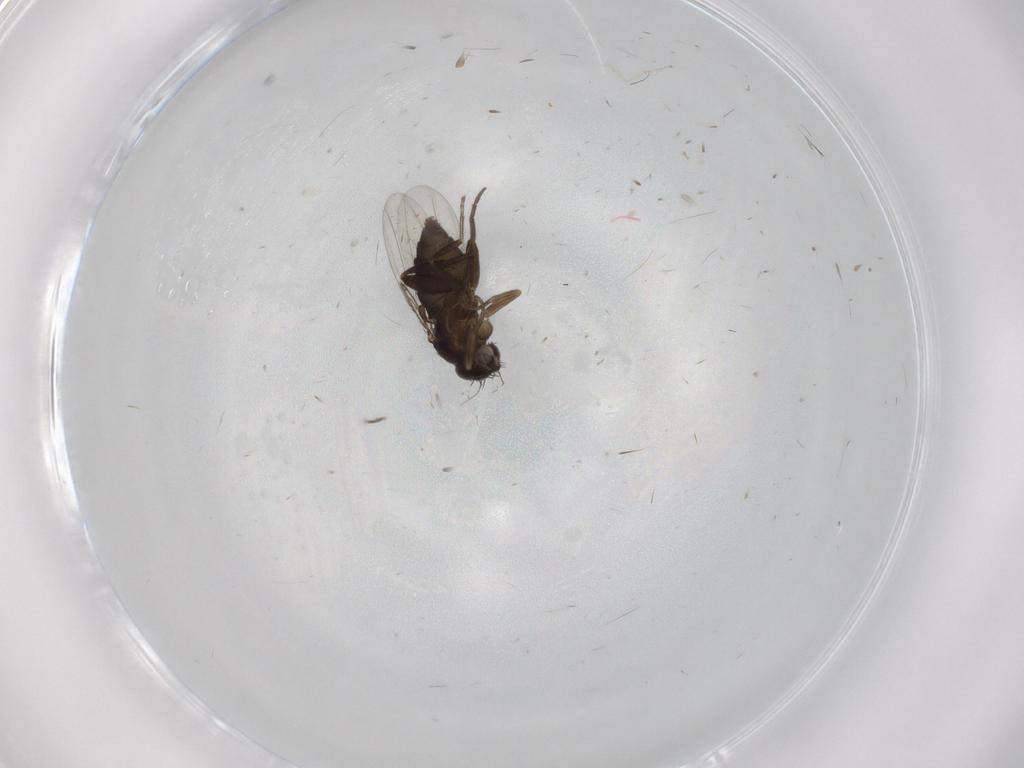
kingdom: Animalia
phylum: Arthropoda
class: Insecta
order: Diptera
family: Phoridae
